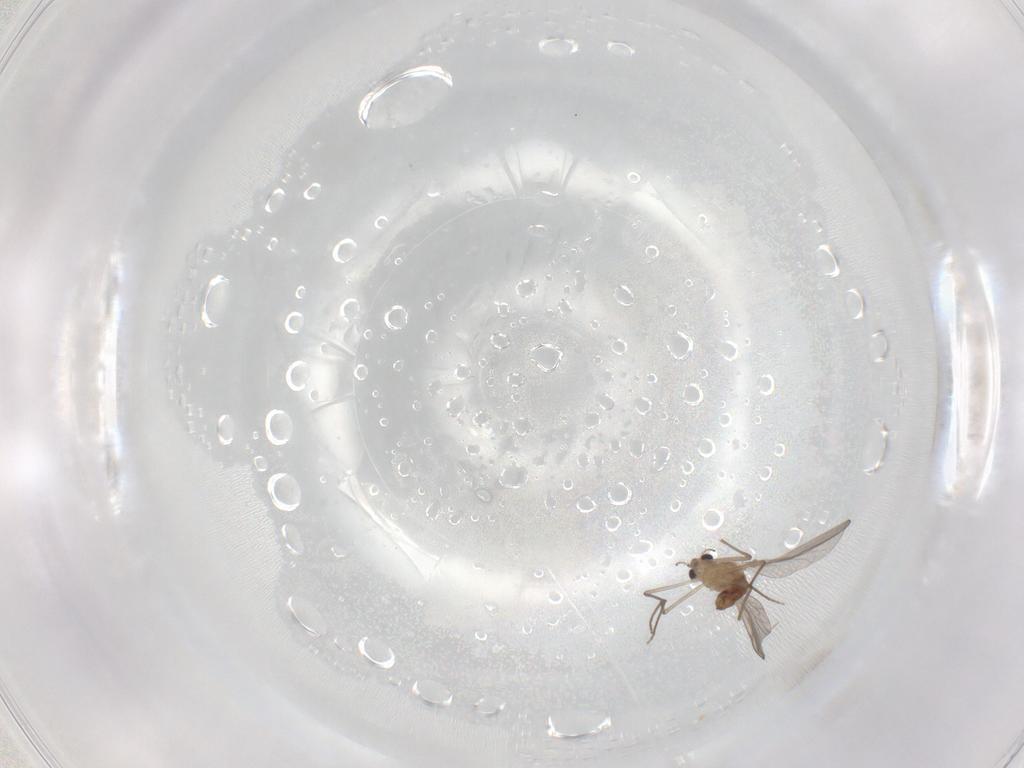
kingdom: Animalia
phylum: Arthropoda
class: Insecta
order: Diptera
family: Chironomidae
